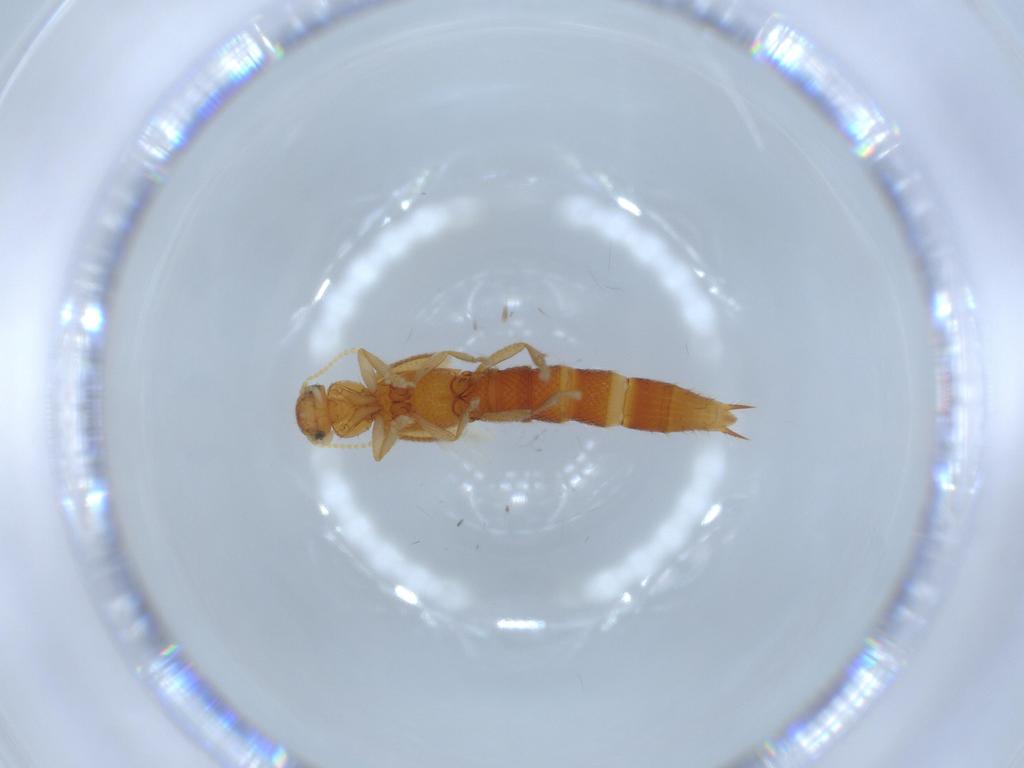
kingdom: Animalia
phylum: Arthropoda
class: Insecta
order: Coleoptera
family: Staphylinidae
